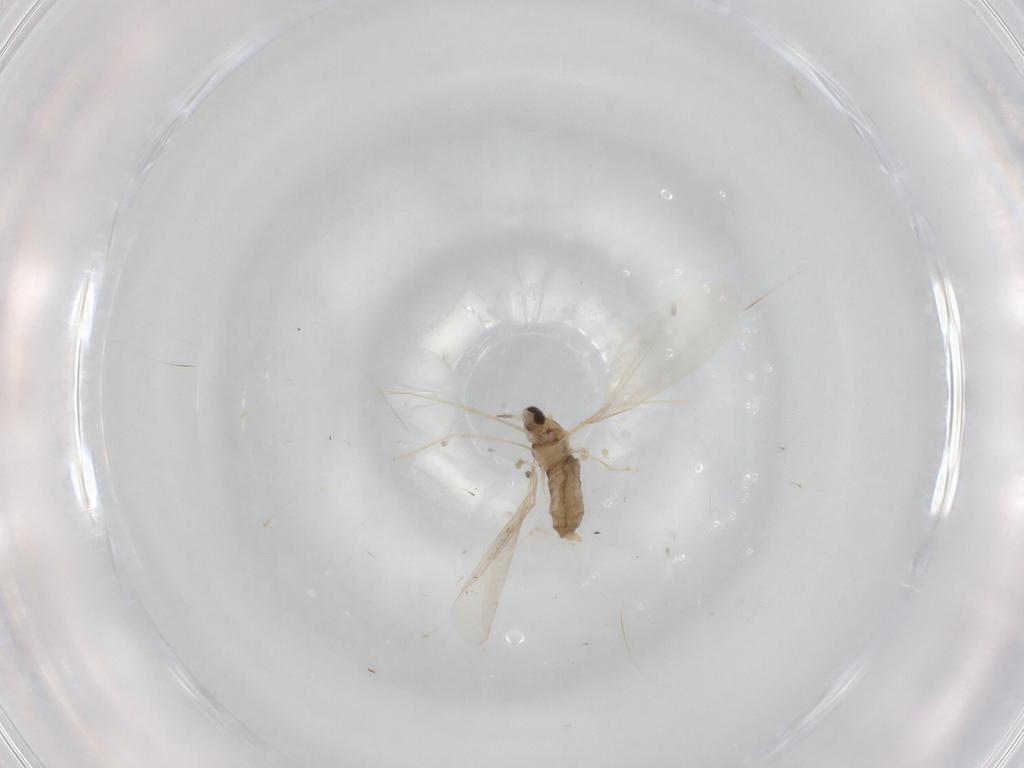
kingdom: Animalia
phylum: Arthropoda
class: Insecta
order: Diptera
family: Cecidomyiidae
